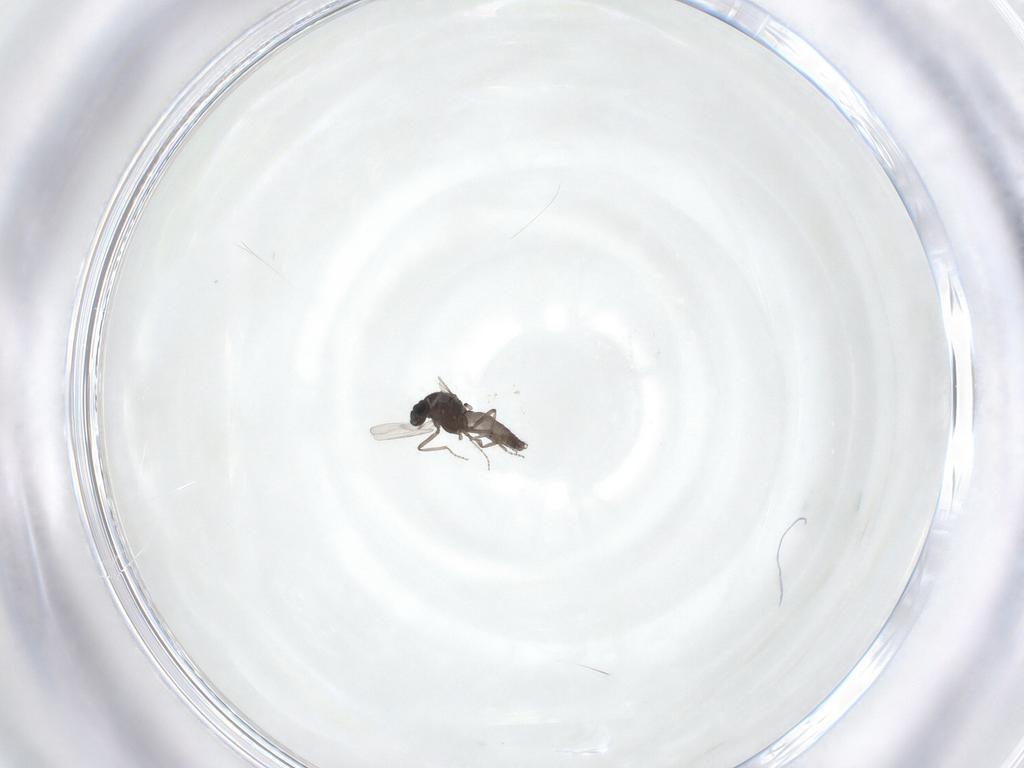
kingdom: Animalia
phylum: Arthropoda
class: Insecta
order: Diptera
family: Ceratopogonidae
